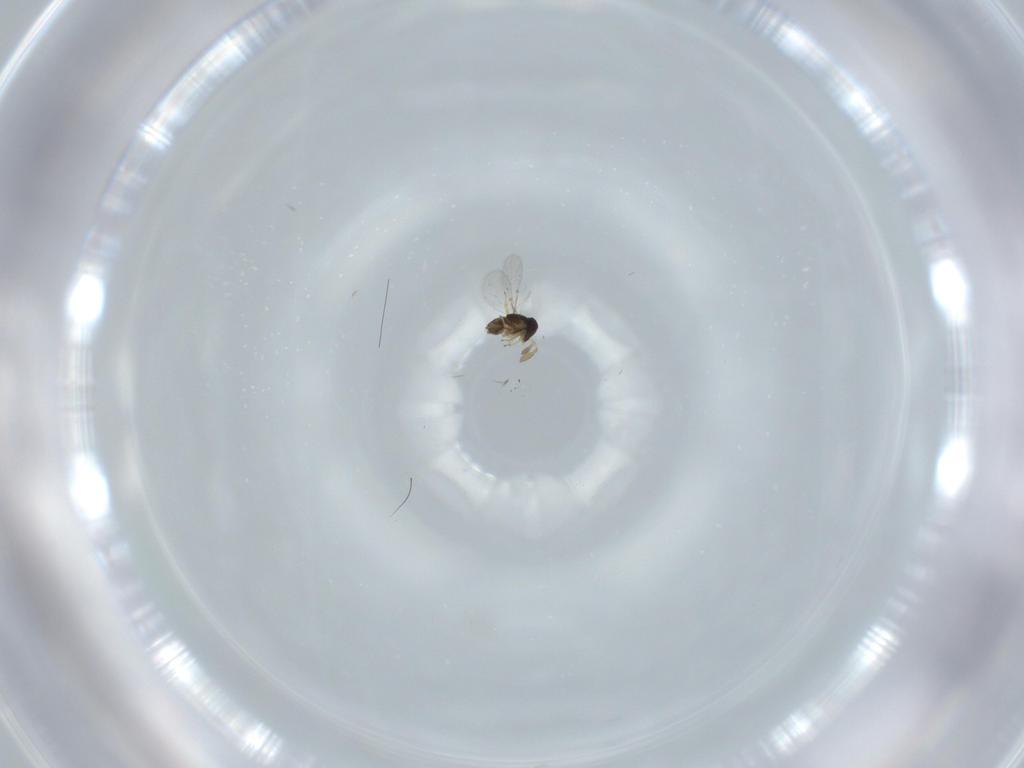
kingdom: Animalia
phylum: Arthropoda
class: Insecta
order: Hymenoptera
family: Encyrtidae
